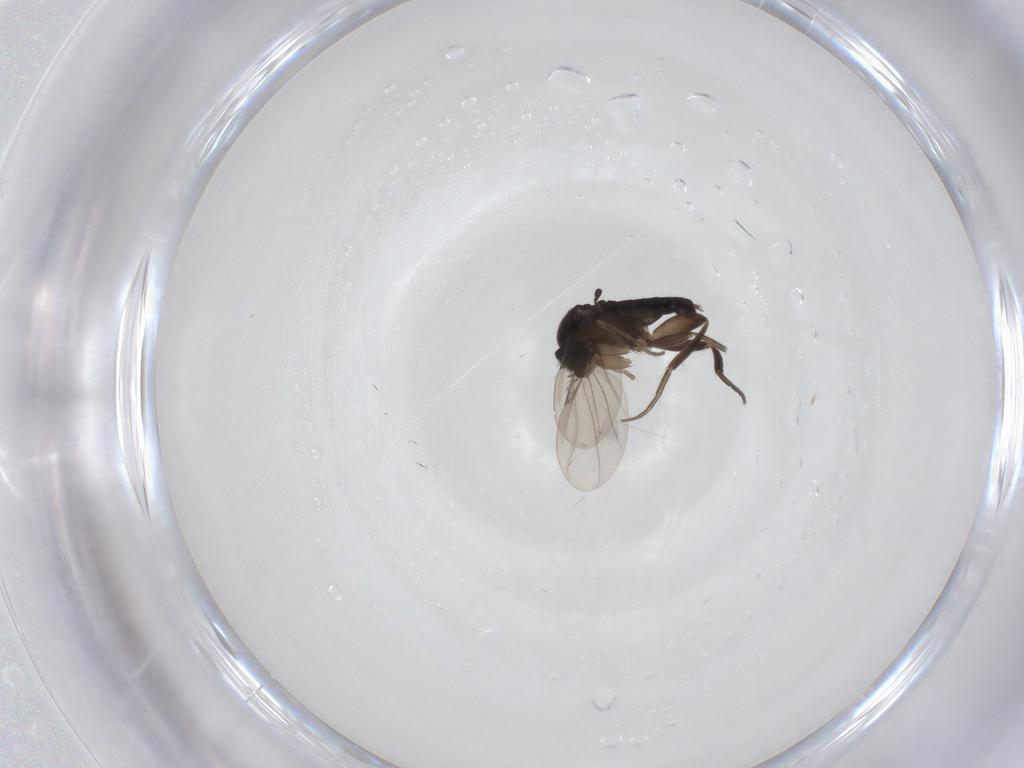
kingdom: Animalia
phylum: Arthropoda
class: Insecta
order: Diptera
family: Phoridae
